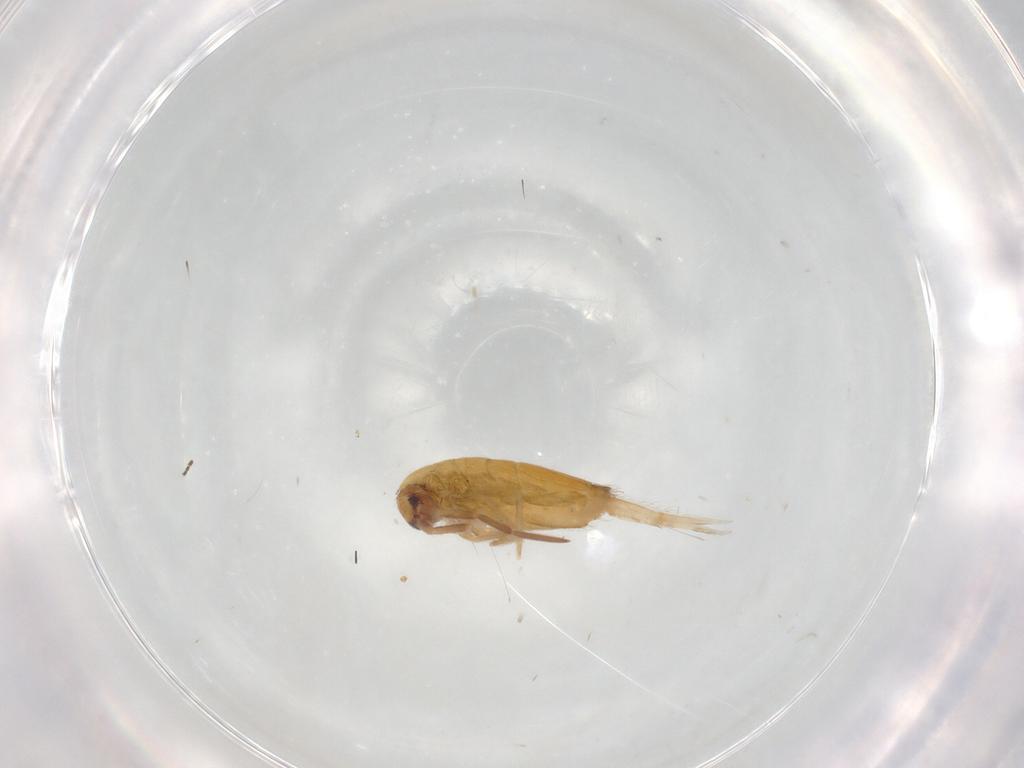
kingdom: Animalia
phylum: Arthropoda
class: Collembola
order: Entomobryomorpha
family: Entomobryidae
